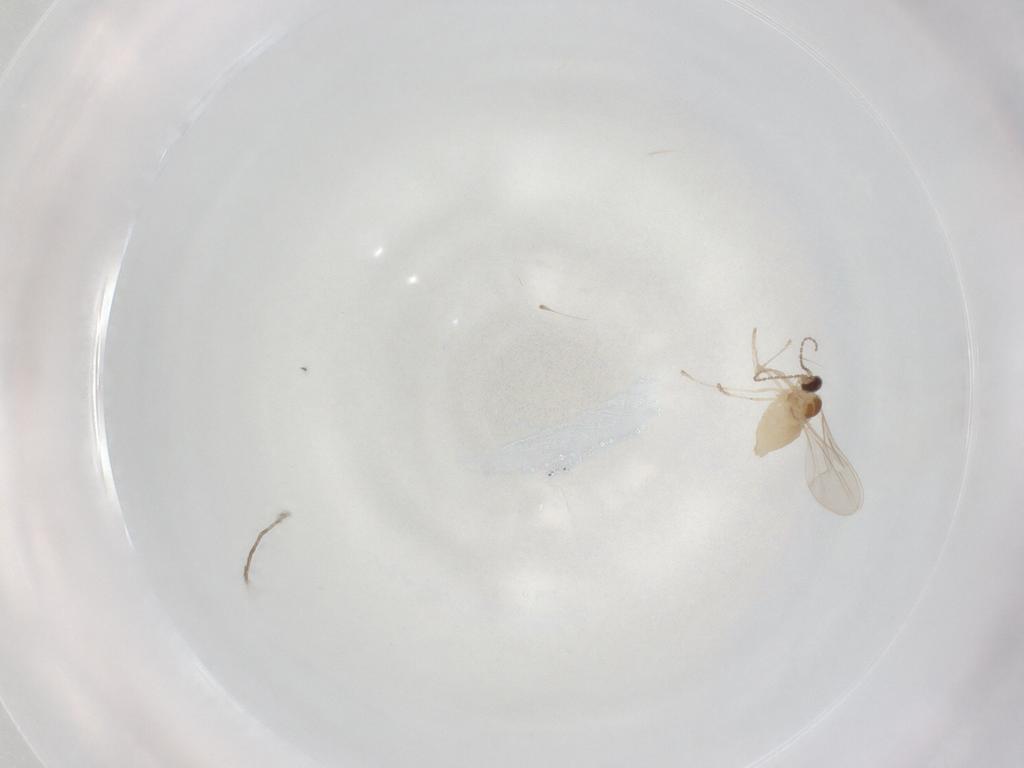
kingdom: Animalia
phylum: Arthropoda
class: Insecta
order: Diptera
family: Cecidomyiidae
